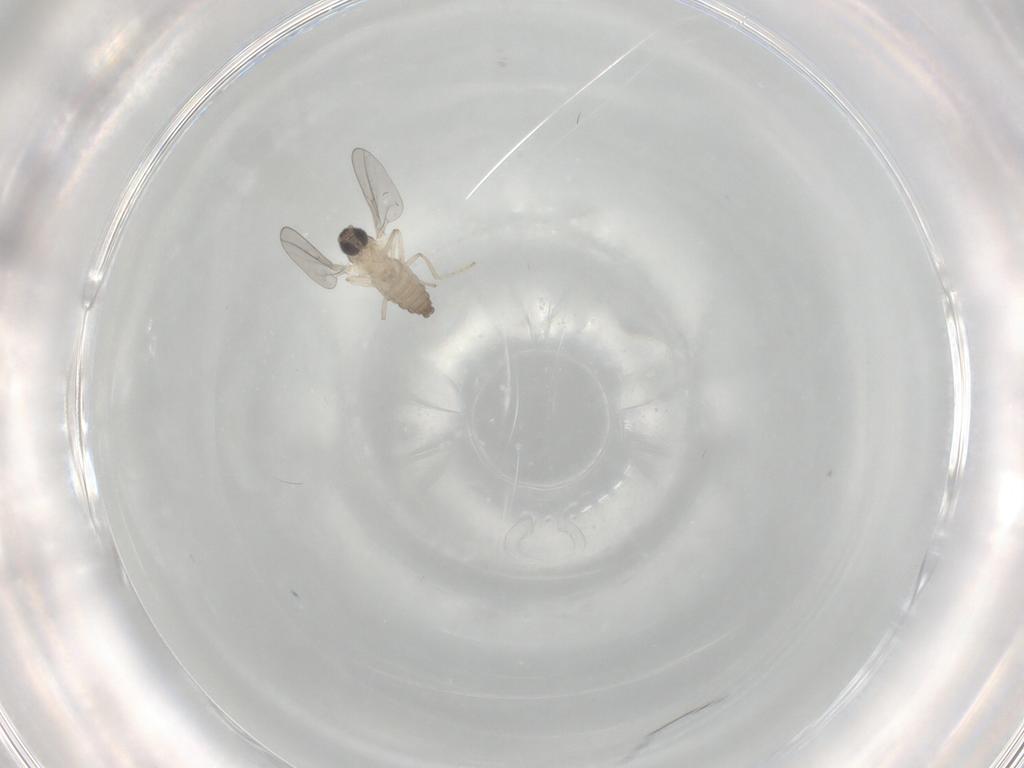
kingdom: Animalia
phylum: Arthropoda
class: Insecta
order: Diptera
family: Cecidomyiidae
